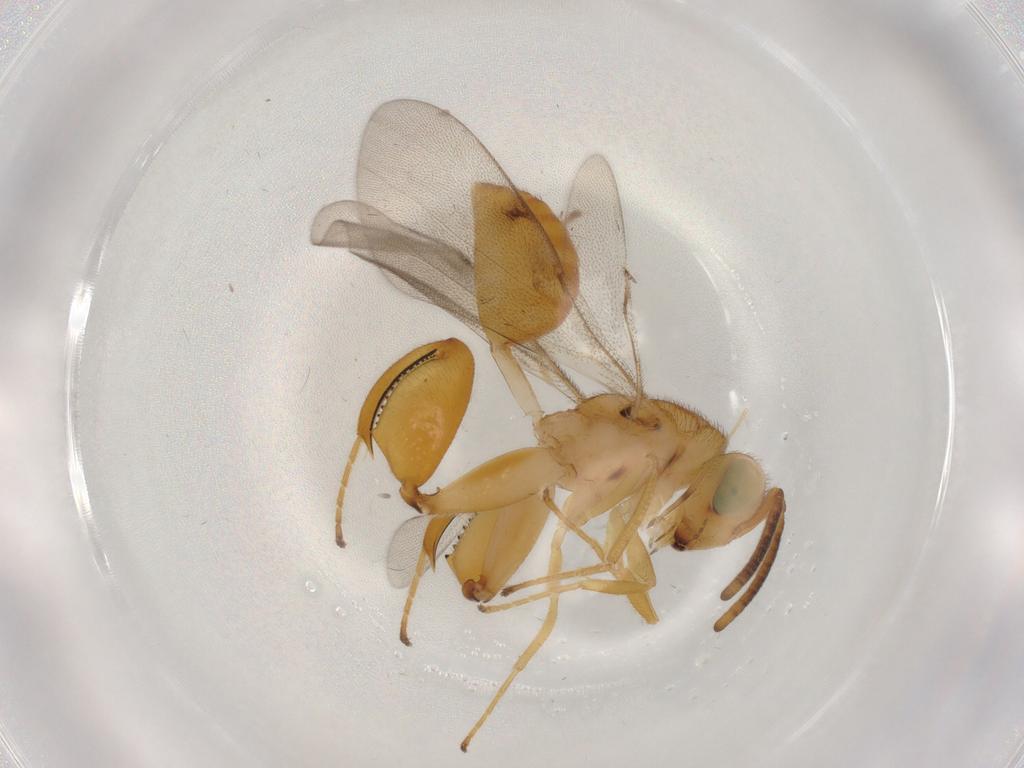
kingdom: Animalia
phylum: Arthropoda
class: Insecta
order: Hymenoptera
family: Chalcididae
